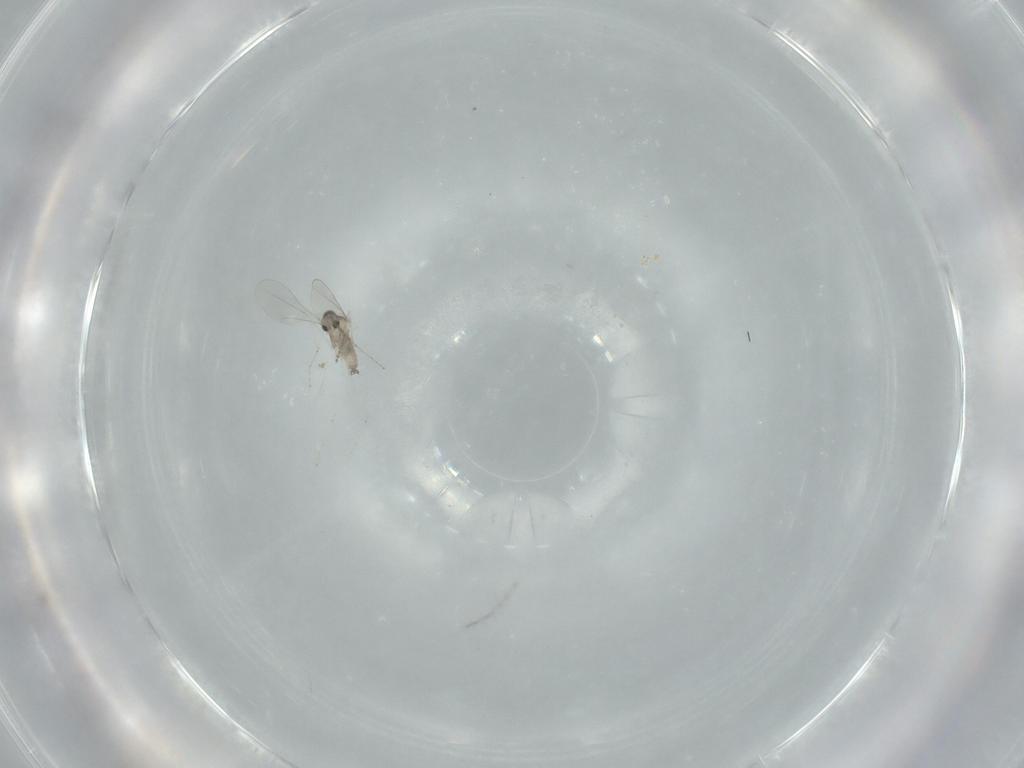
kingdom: Animalia
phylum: Arthropoda
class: Insecta
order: Diptera
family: Cecidomyiidae
